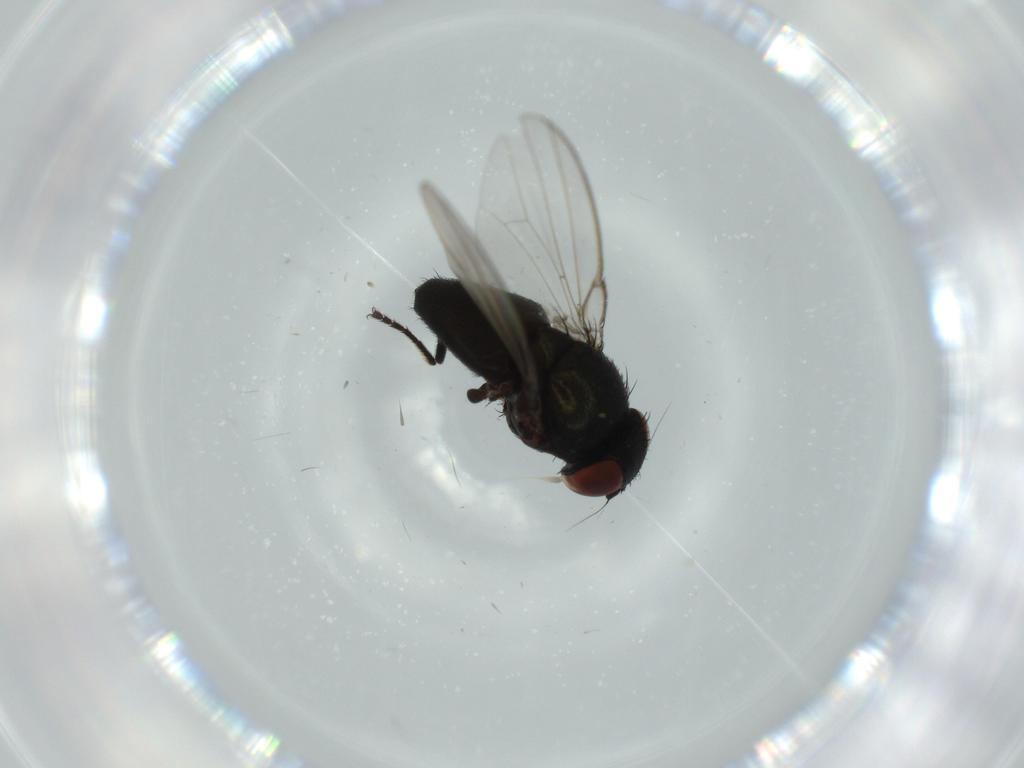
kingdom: Animalia
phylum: Arthropoda
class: Insecta
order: Diptera
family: Milichiidae
